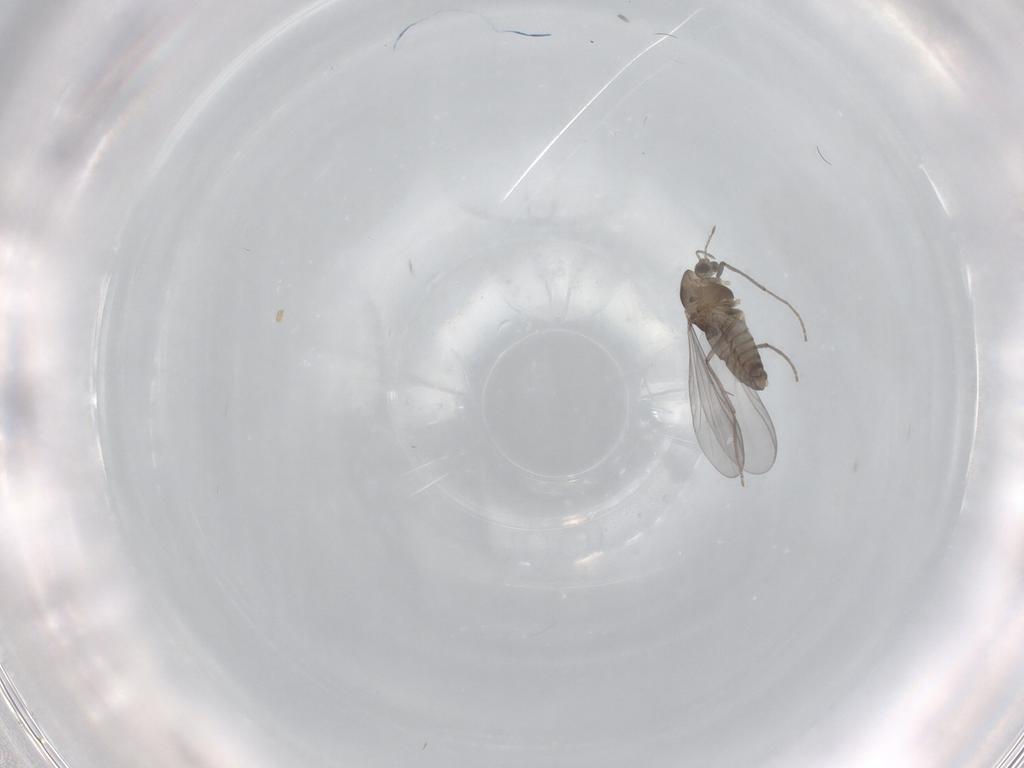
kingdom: Animalia
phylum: Arthropoda
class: Insecta
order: Diptera
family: Chironomidae
